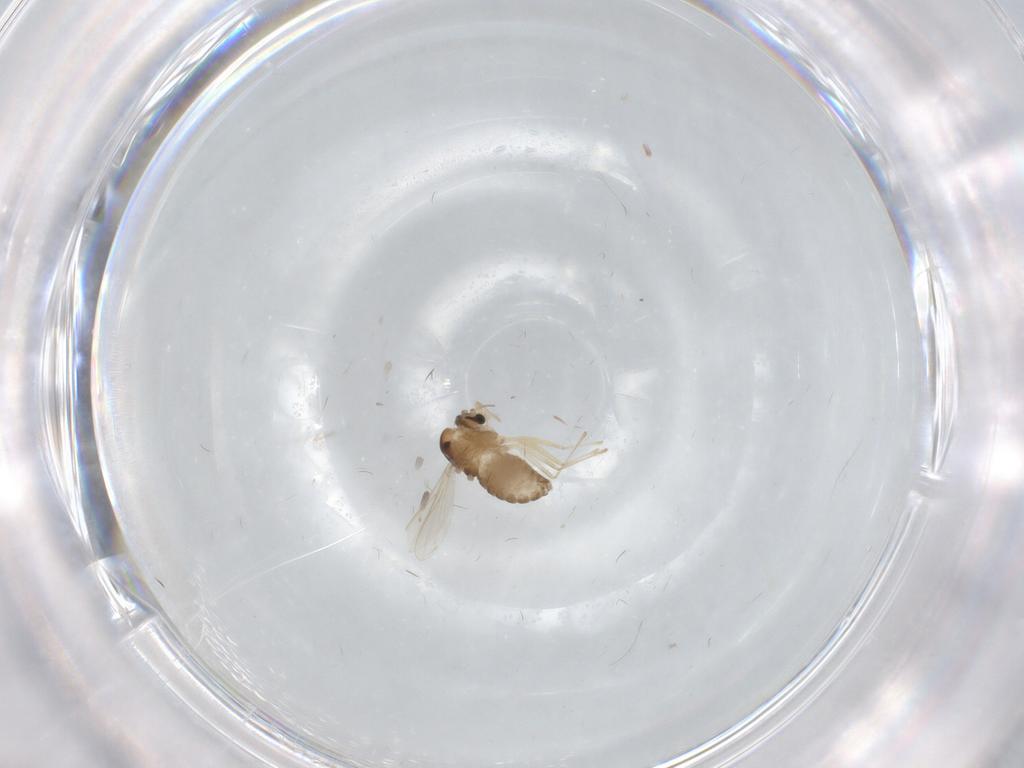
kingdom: Animalia
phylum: Arthropoda
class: Insecta
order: Diptera
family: Chironomidae
